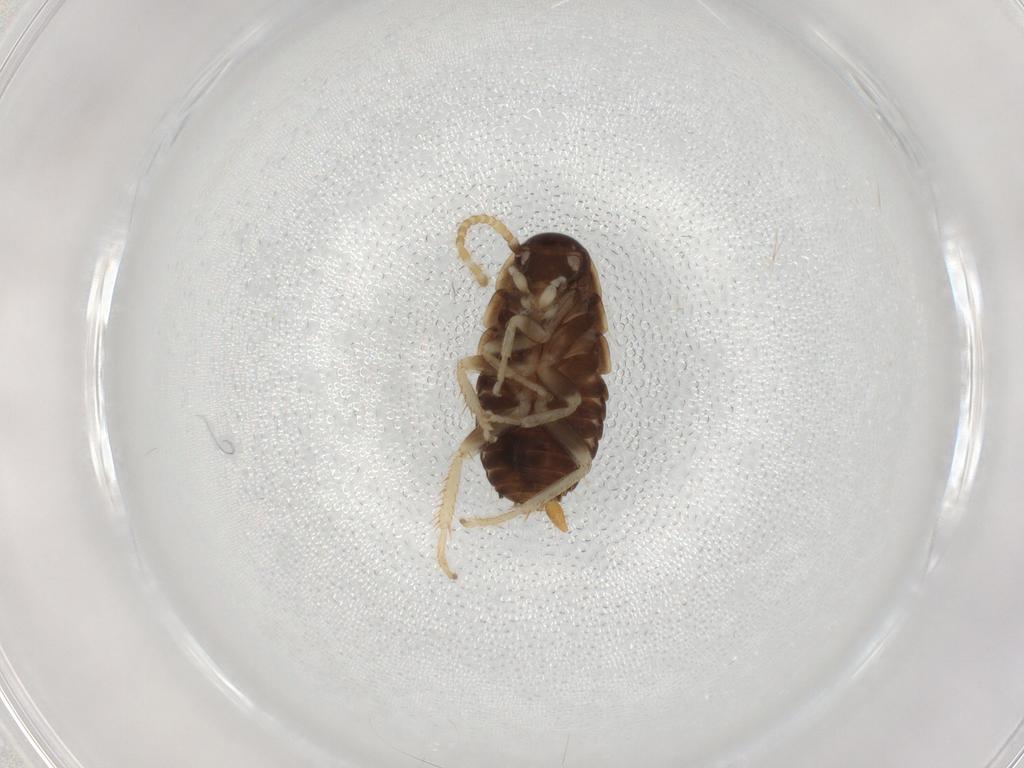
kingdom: Animalia
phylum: Arthropoda
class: Insecta
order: Blattodea
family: Ectobiidae
